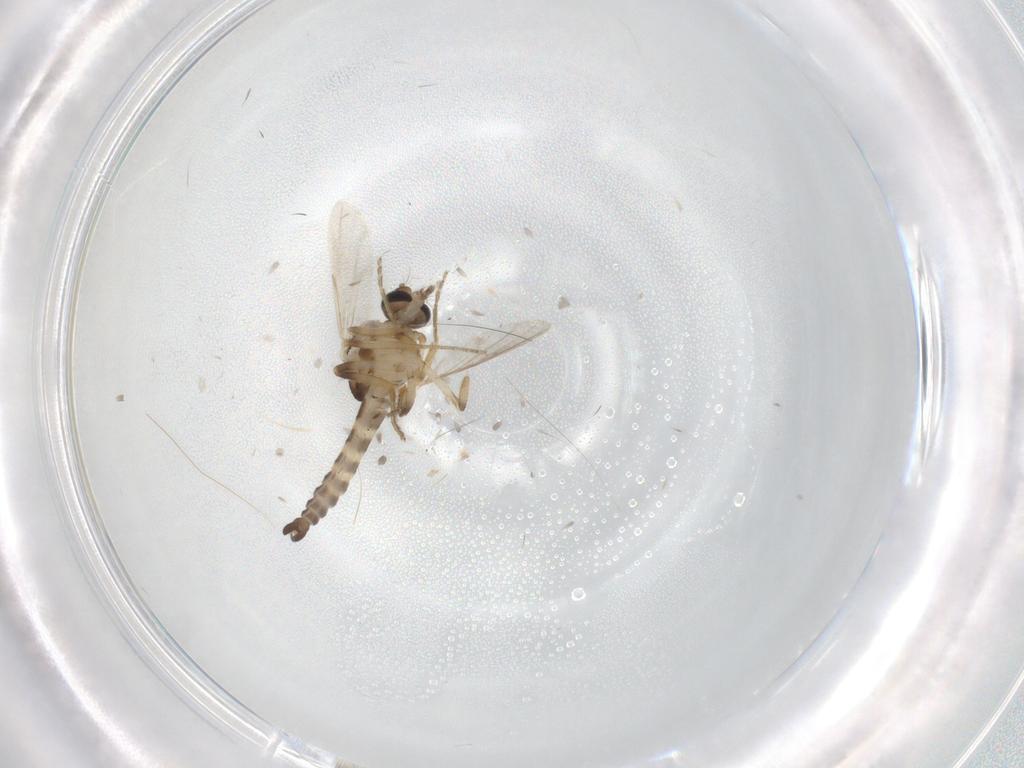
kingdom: Animalia
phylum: Arthropoda
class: Insecta
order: Diptera
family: Ceratopogonidae
